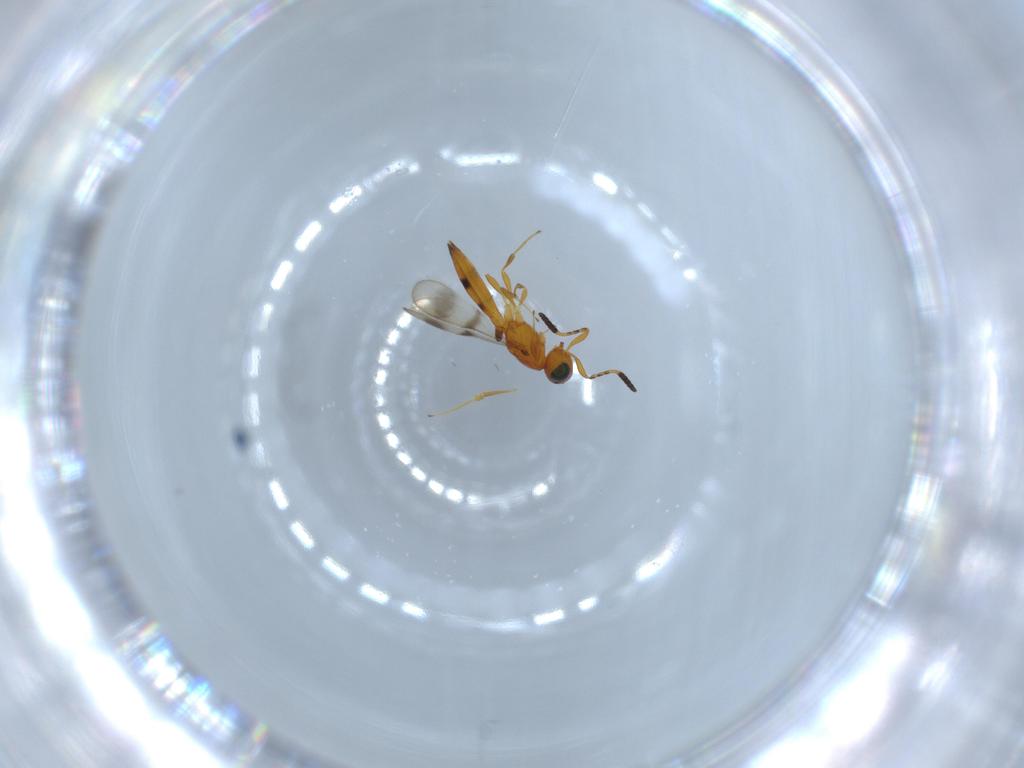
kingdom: Animalia
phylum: Arthropoda
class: Insecta
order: Hymenoptera
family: Scelionidae
